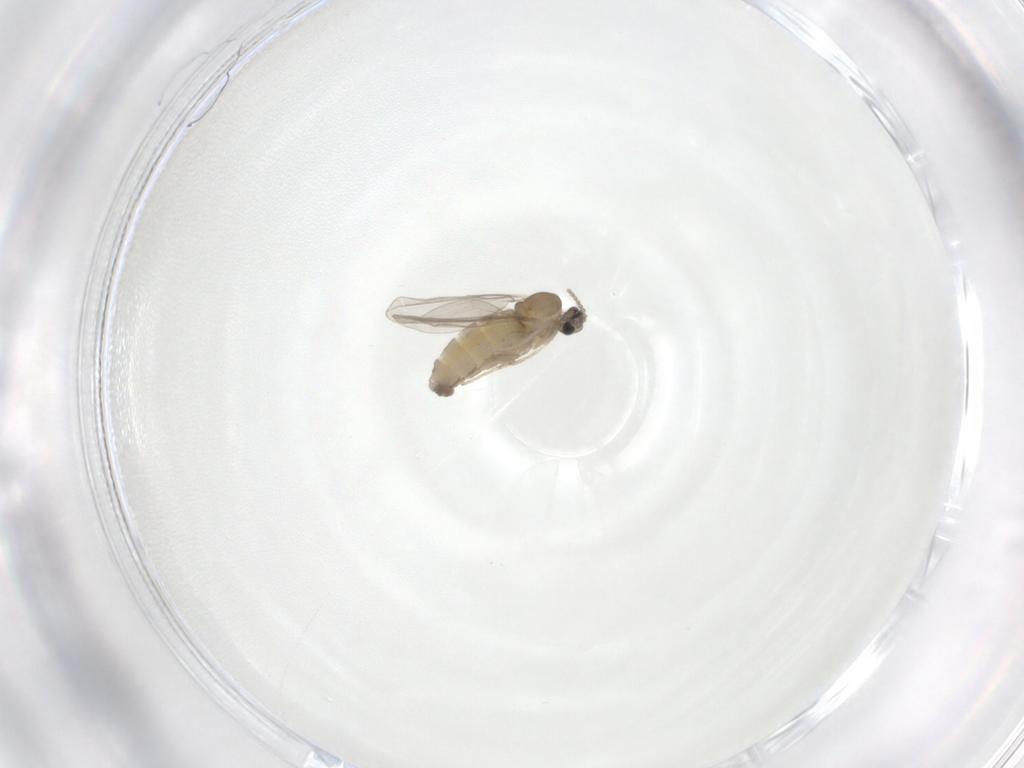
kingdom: Animalia
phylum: Arthropoda
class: Insecta
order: Diptera
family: Cecidomyiidae
